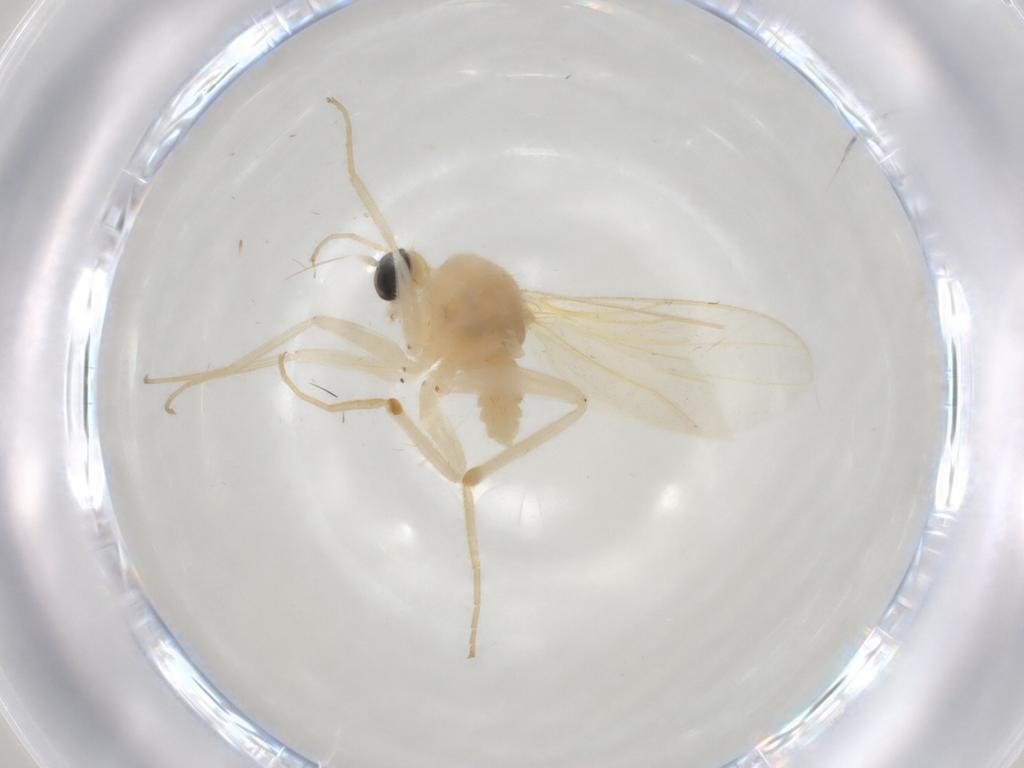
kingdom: Animalia
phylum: Arthropoda
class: Insecta
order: Diptera
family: Hybotidae
